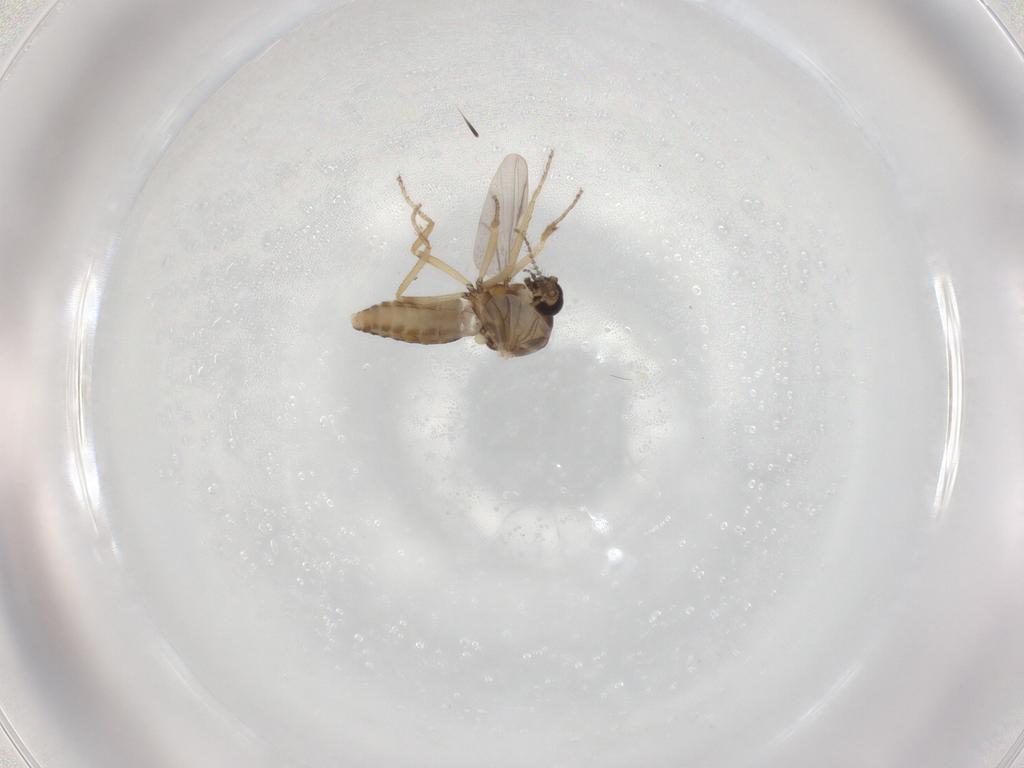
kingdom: Animalia
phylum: Arthropoda
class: Insecta
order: Diptera
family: Ceratopogonidae
